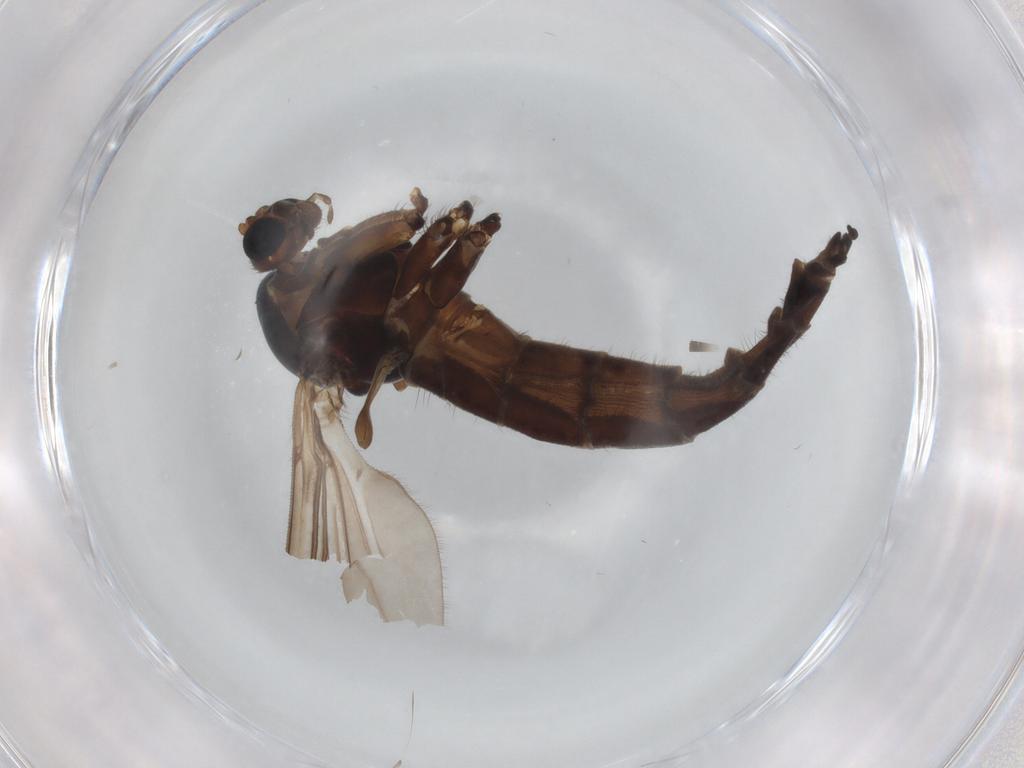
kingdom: Animalia
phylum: Arthropoda
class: Insecta
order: Diptera
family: Sciaridae
